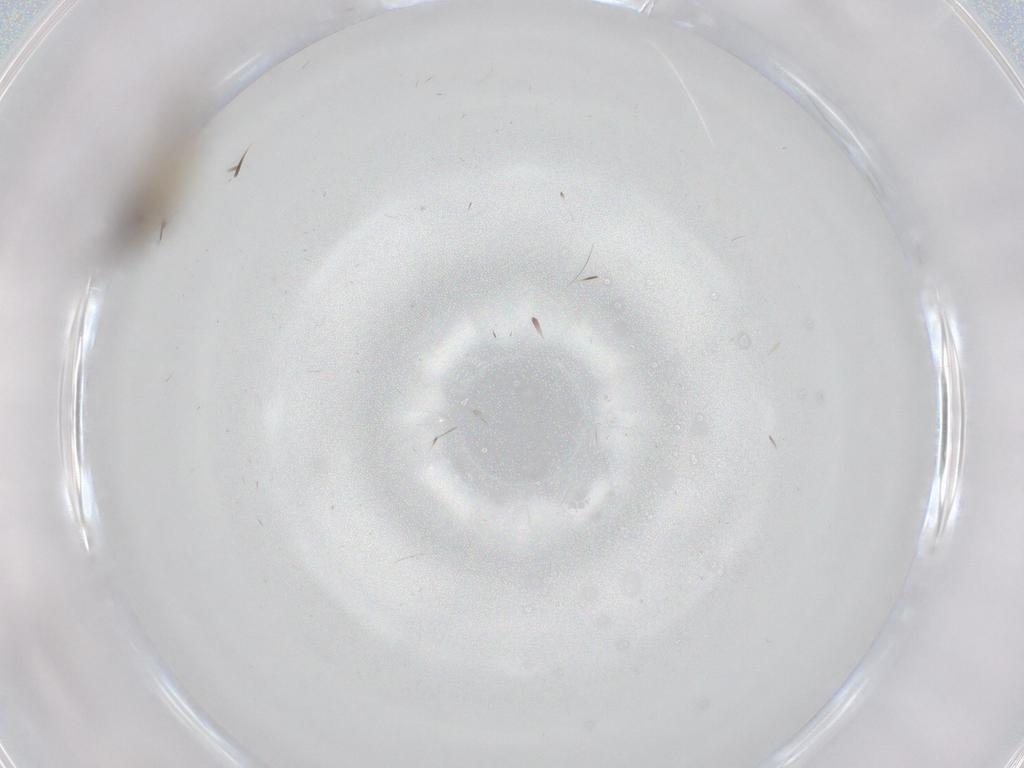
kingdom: Animalia
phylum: Arthropoda
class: Insecta
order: Diptera
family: Cecidomyiidae
